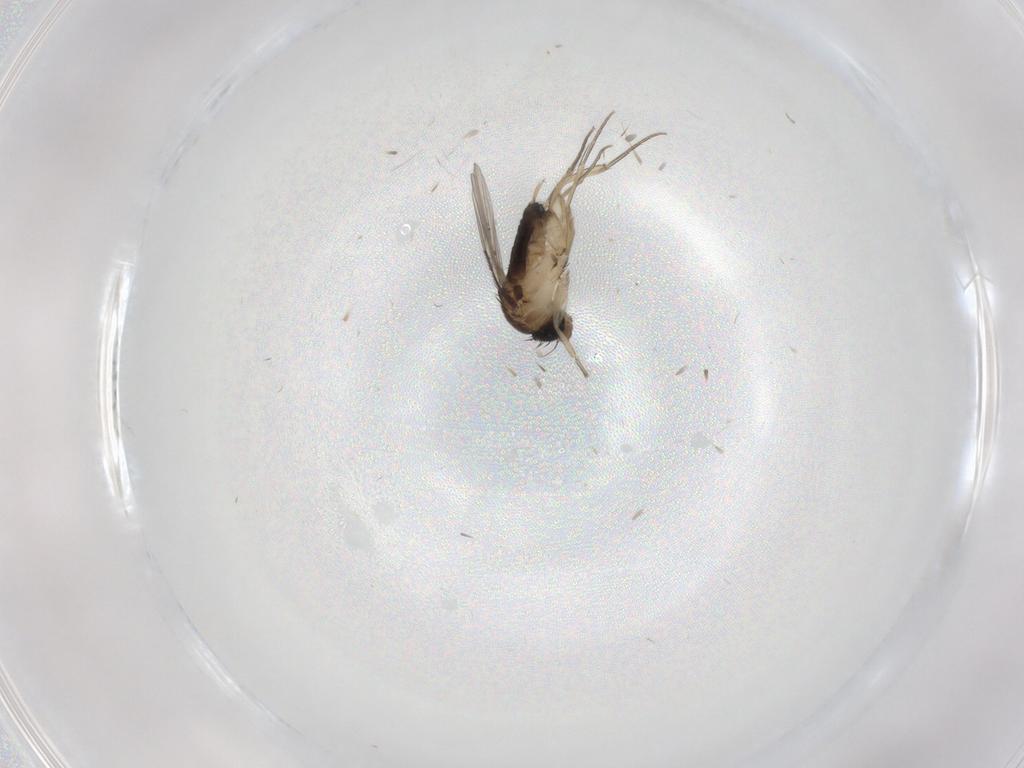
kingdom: Animalia
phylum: Arthropoda
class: Insecta
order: Diptera
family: Phoridae
